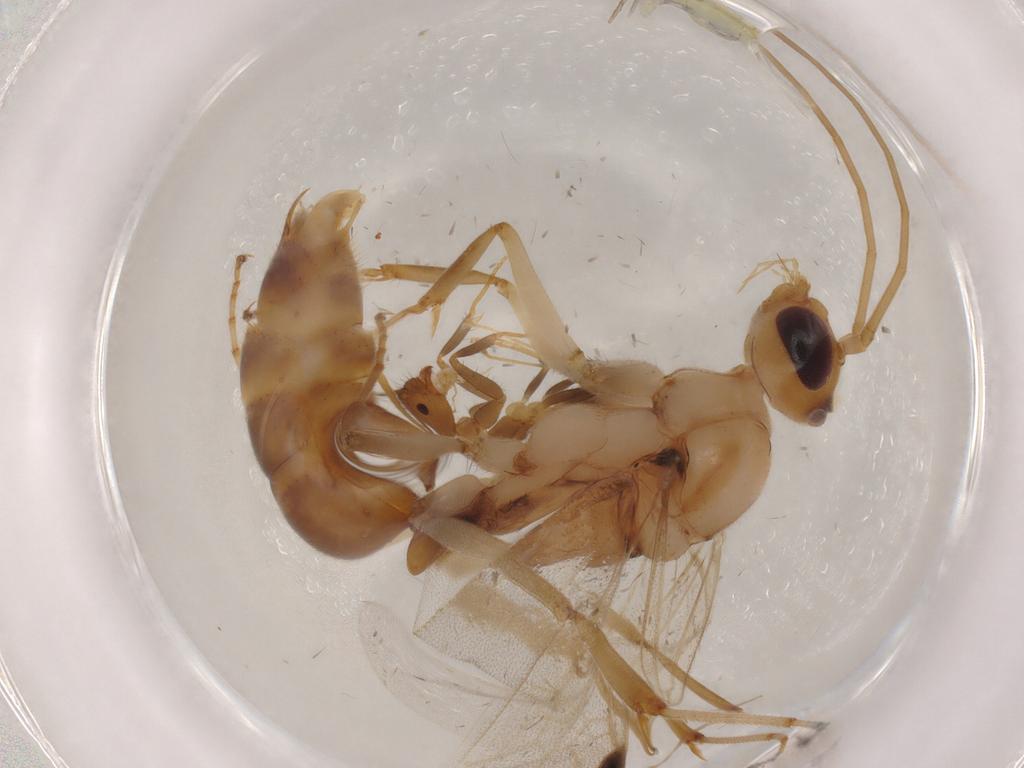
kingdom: Animalia
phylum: Arthropoda
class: Insecta
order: Hymenoptera
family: Formicidae
